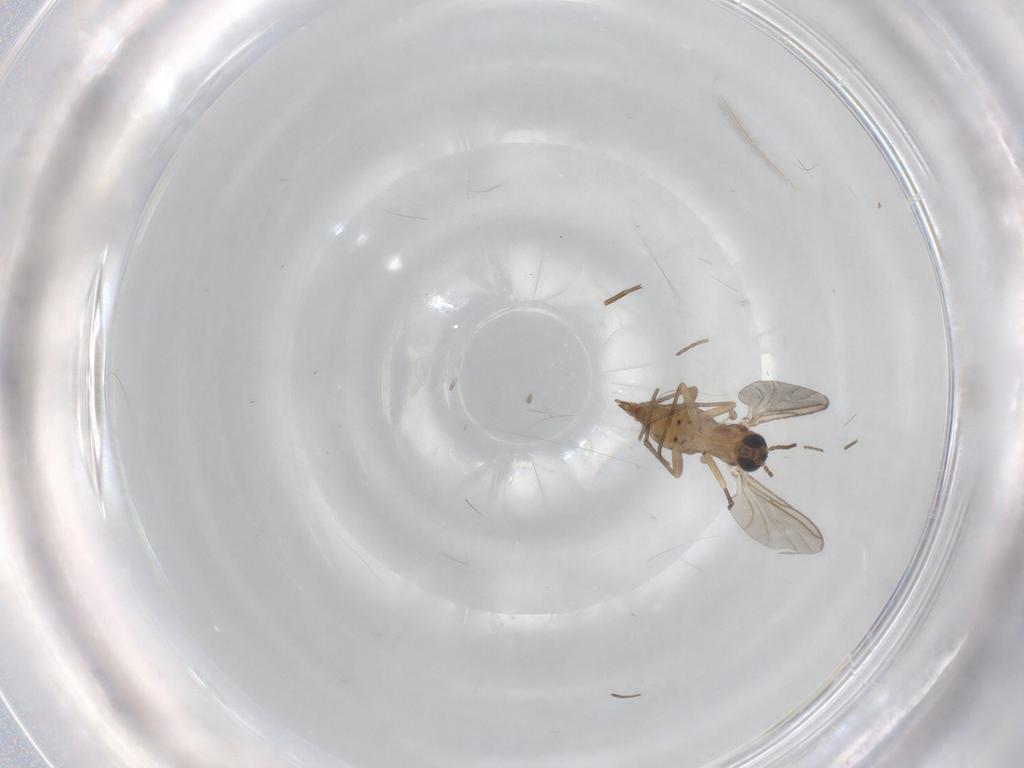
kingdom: Animalia
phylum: Arthropoda
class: Insecta
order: Diptera
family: Phoridae
